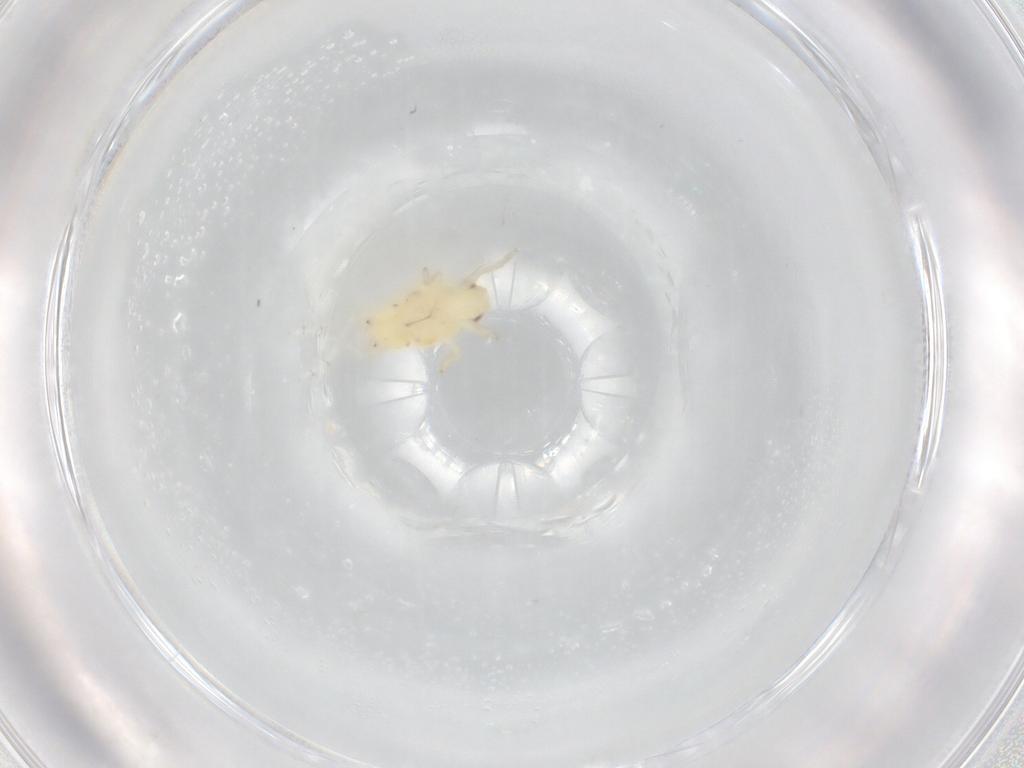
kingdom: Animalia
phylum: Arthropoda
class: Insecta
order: Hemiptera
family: Tropiduchidae
